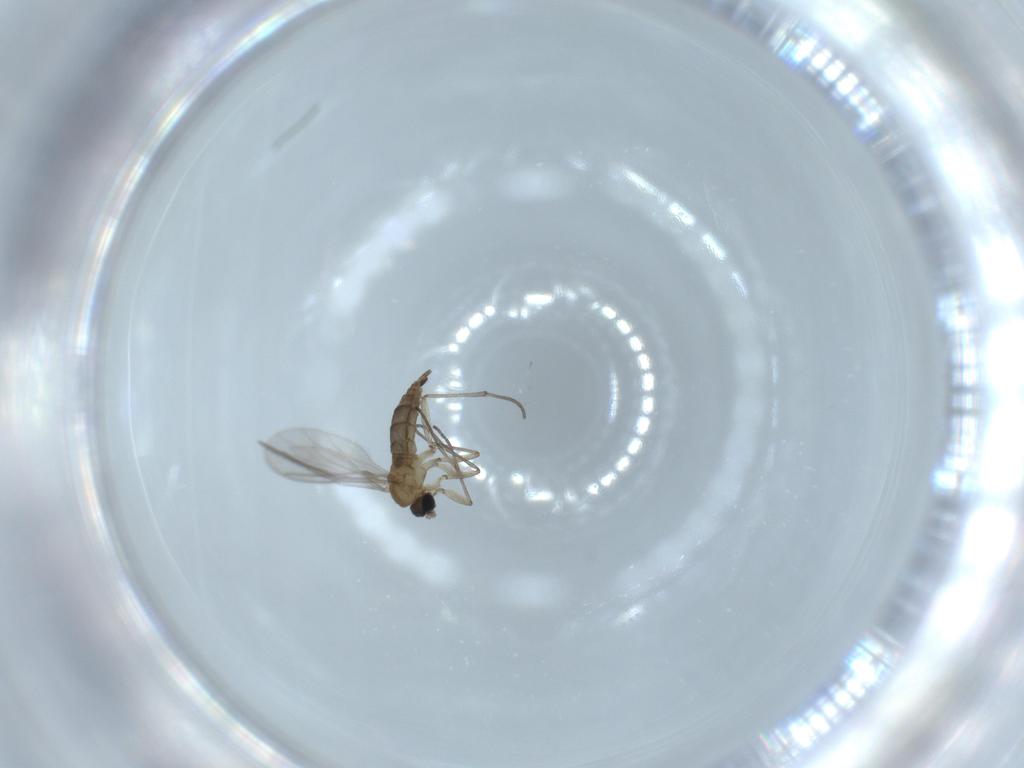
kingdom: Animalia
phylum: Arthropoda
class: Insecta
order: Diptera
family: Sciaridae
